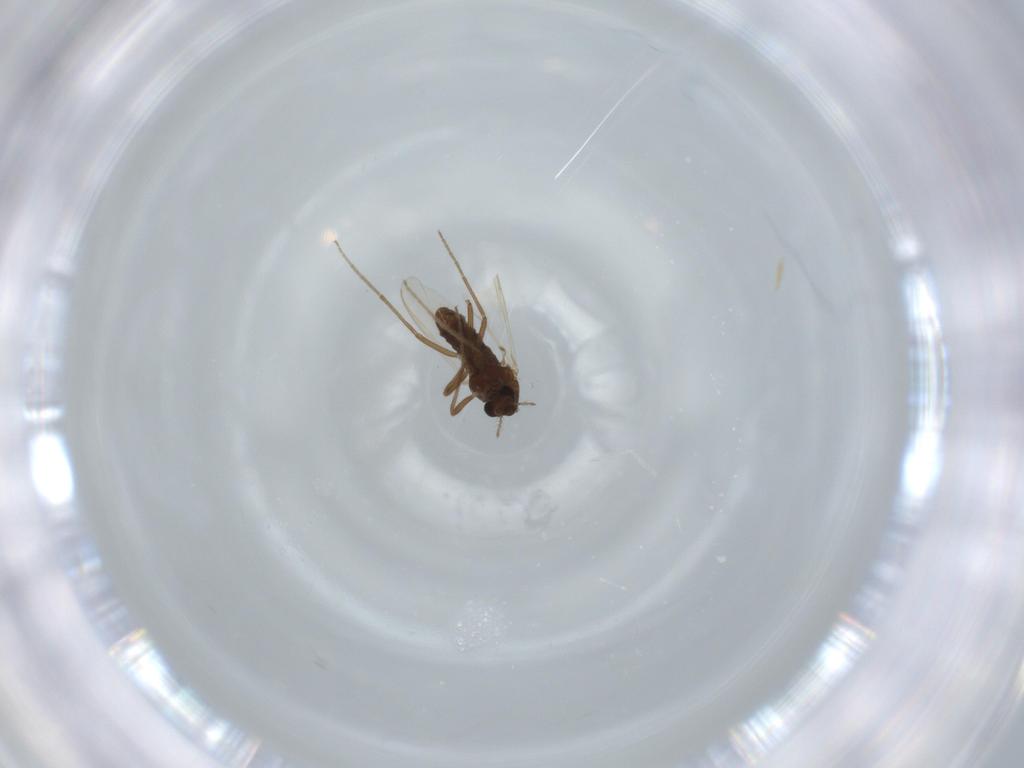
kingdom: Animalia
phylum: Arthropoda
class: Insecta
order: Diptera
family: Chironomidae
